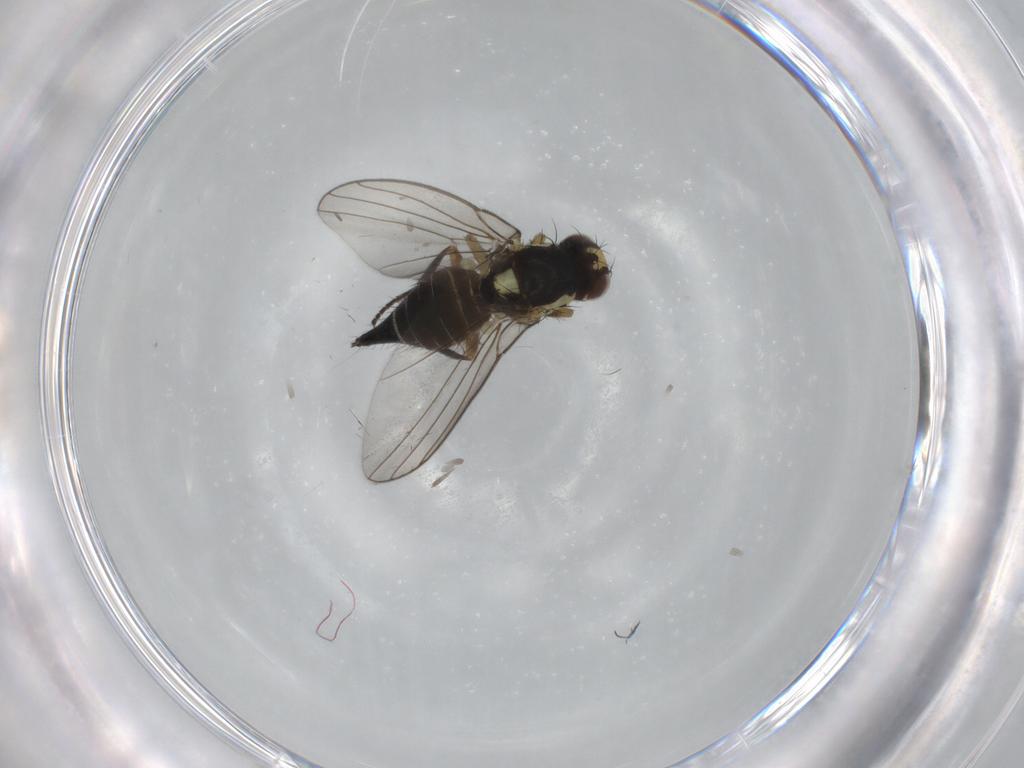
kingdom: Animalia
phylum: Arthropoda
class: Insecta
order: Diptera
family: Agromyzidae
